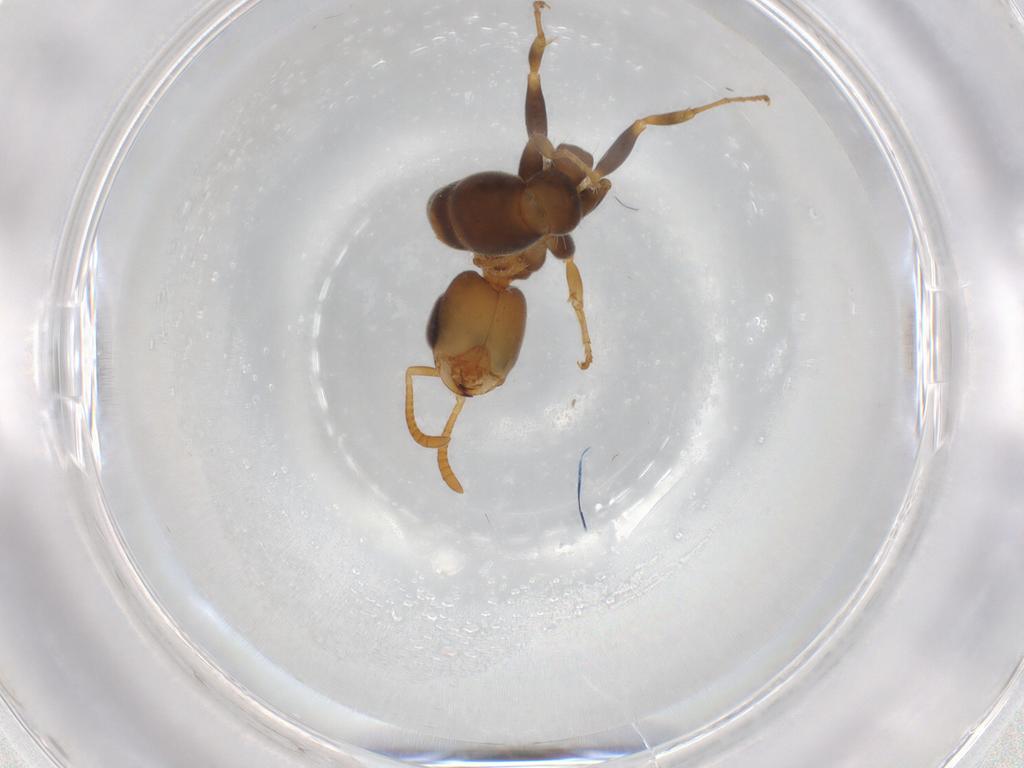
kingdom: Animalia
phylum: Arthropoda
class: Insecta
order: Hymenoptera
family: Formicidae
